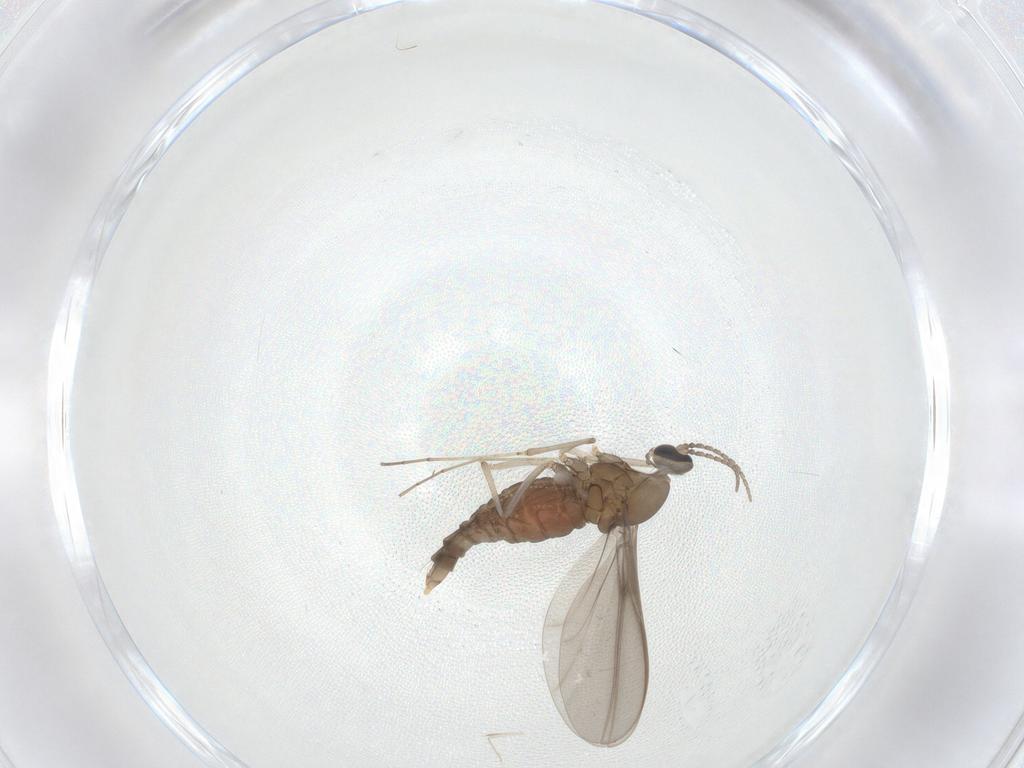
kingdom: Animalia
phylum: Arthropoda
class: Insecta
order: Diptera
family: Cecidomyiidae
